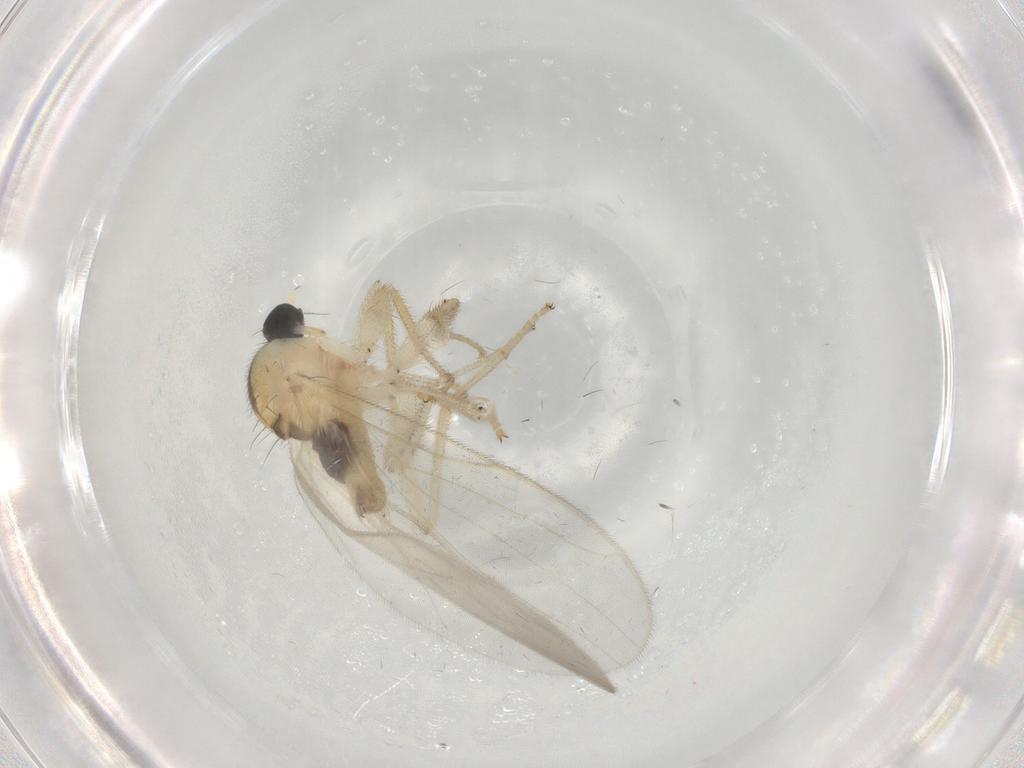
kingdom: Animalia
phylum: Arthropoda
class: Insecta
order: Diptera
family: Chironomidae
